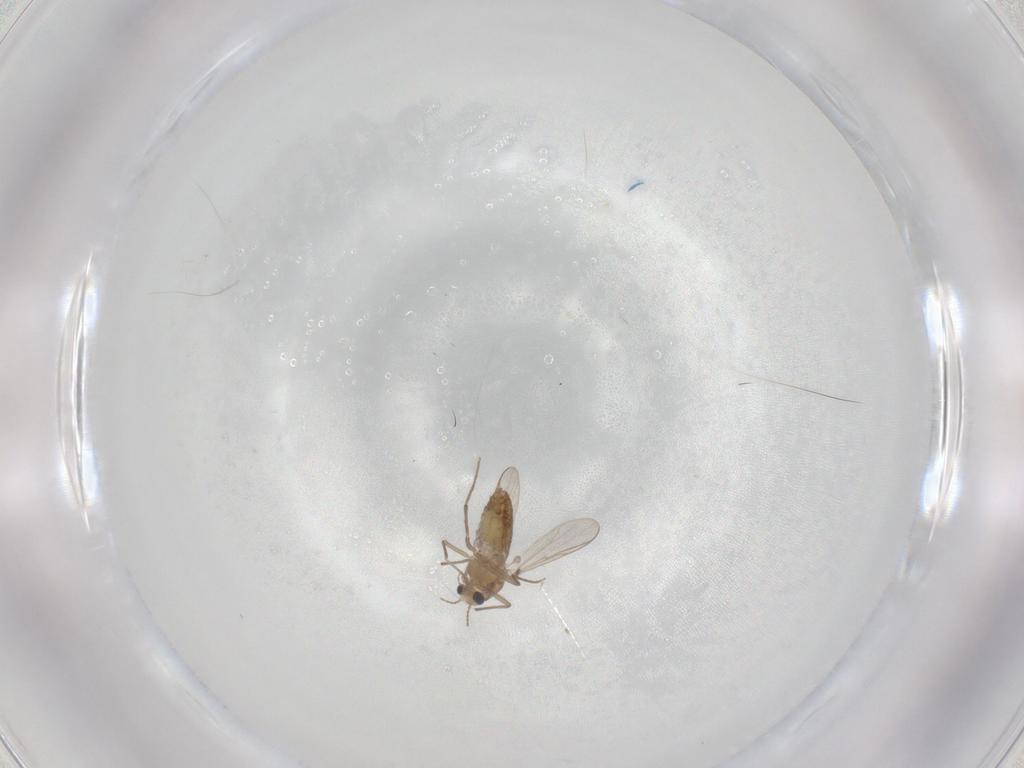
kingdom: Animalia
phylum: Arthropoda
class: Insecta
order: Diptera
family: Chironomidae
